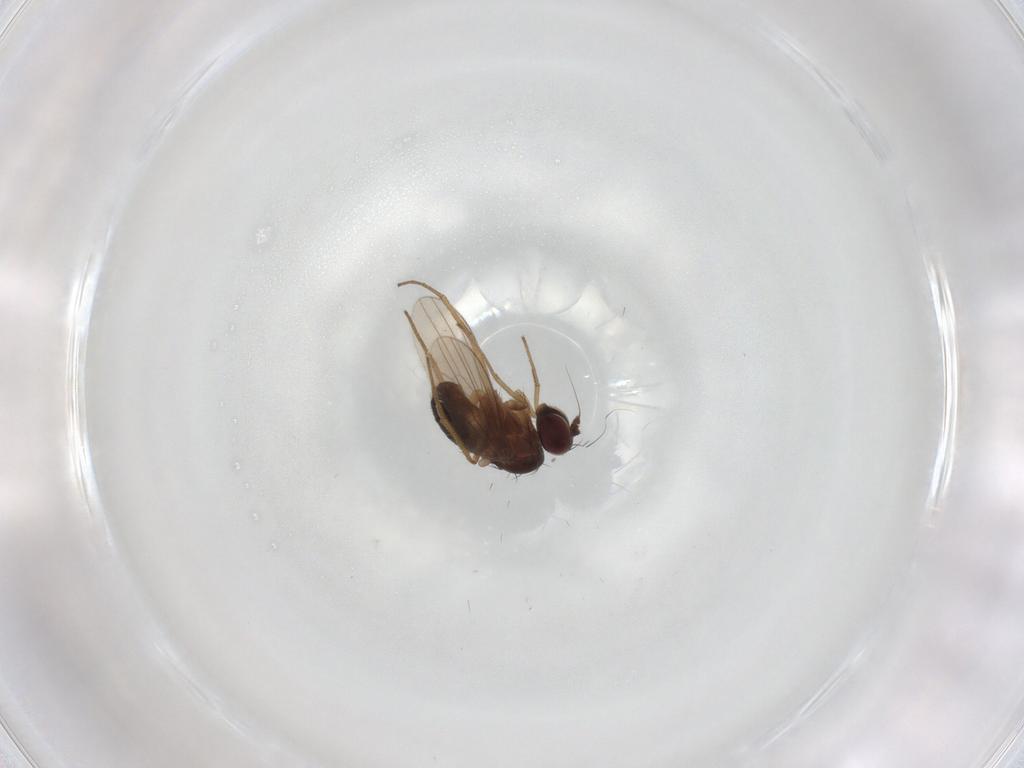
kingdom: Animalia
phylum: Arthropoda
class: Insecta
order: Diptera
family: Dolichopodidae
